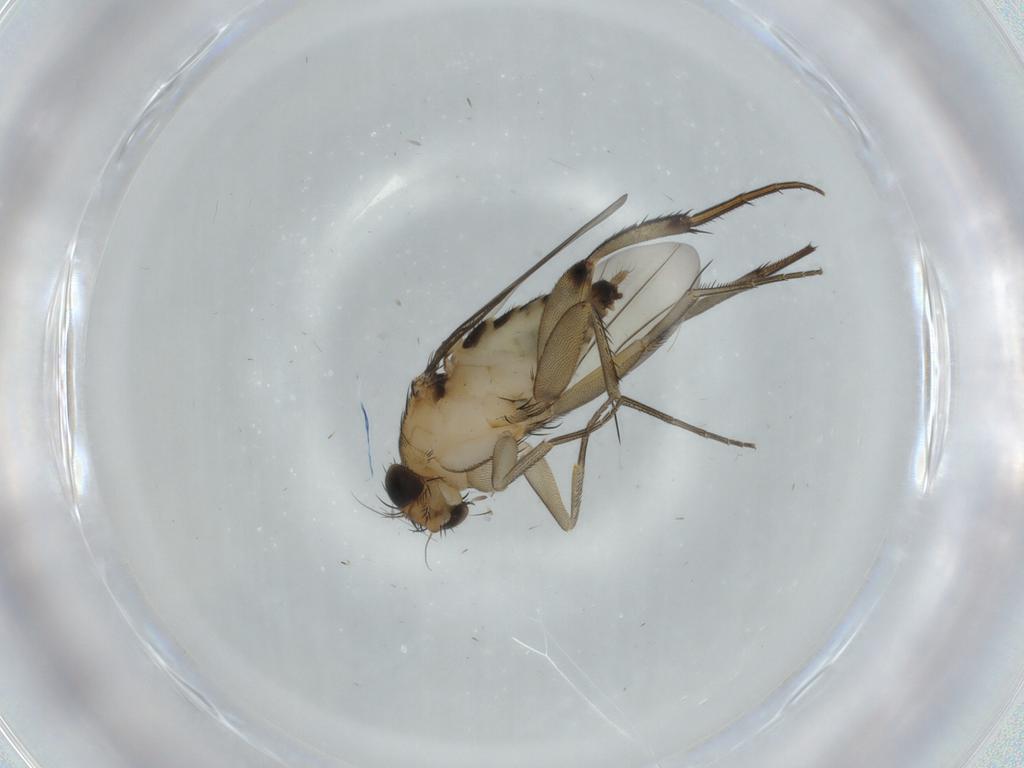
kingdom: Animalia
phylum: Arthropoda
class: Insecta
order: Diptera
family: Phoridae
